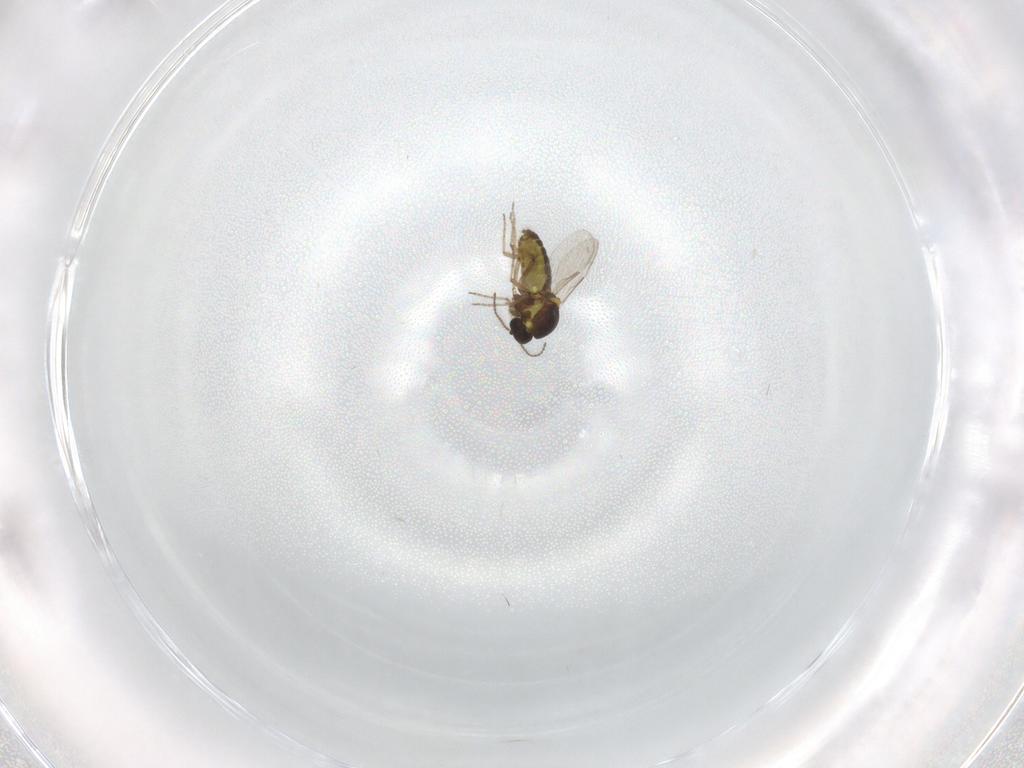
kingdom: Animalia
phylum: Arthropoda
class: Insecta
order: Diptera
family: Ceratopogonidae
